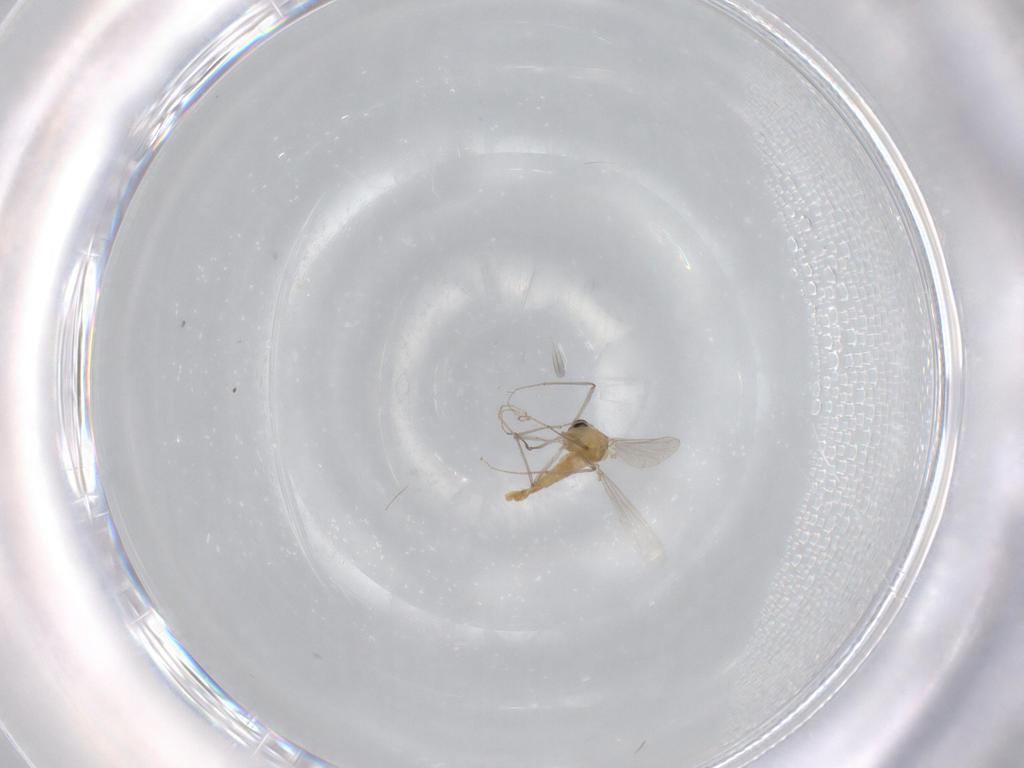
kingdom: Animalia
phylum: Arthropoda
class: Insecta
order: Diptera
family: Chironomidae
